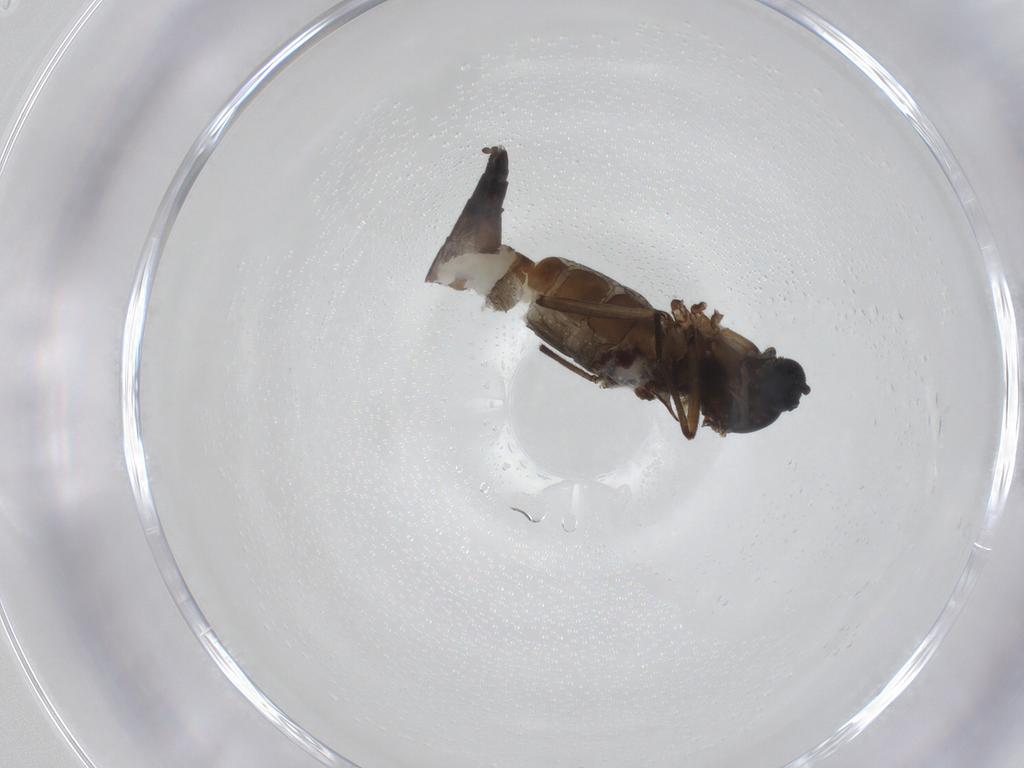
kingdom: Animalia
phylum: Arthropoda
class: Insecta
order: Diptera
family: Sciaridae
